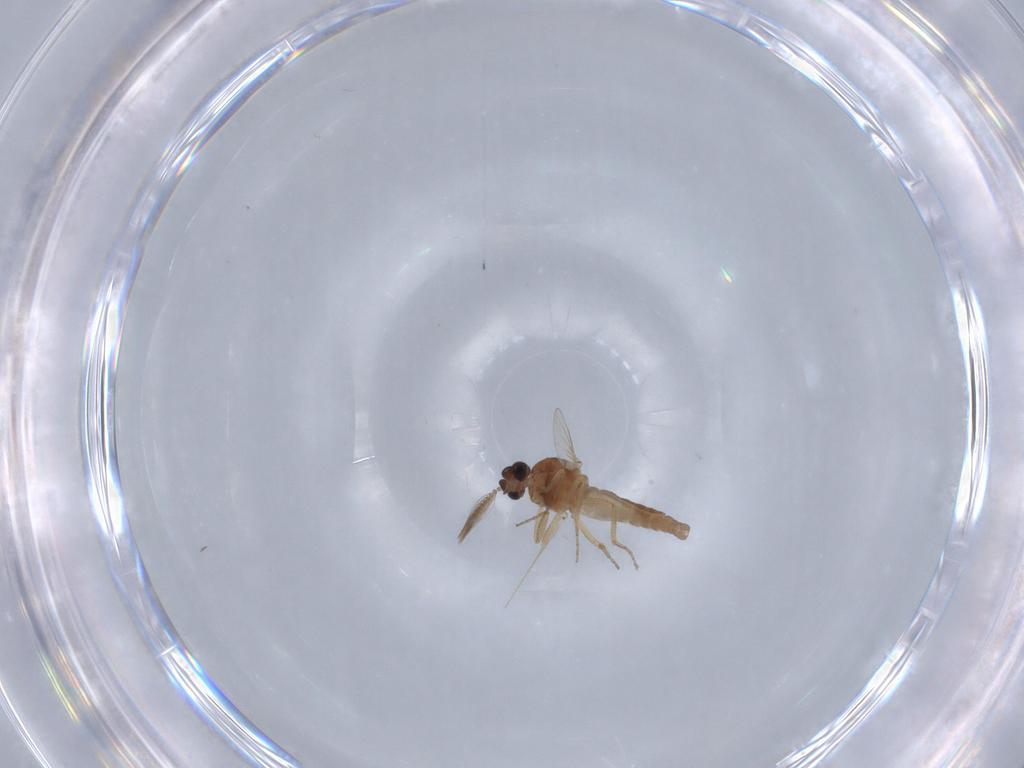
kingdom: Animalia
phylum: Arthropoda
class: Insecta
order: Diptera
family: Ceratopogonidae
